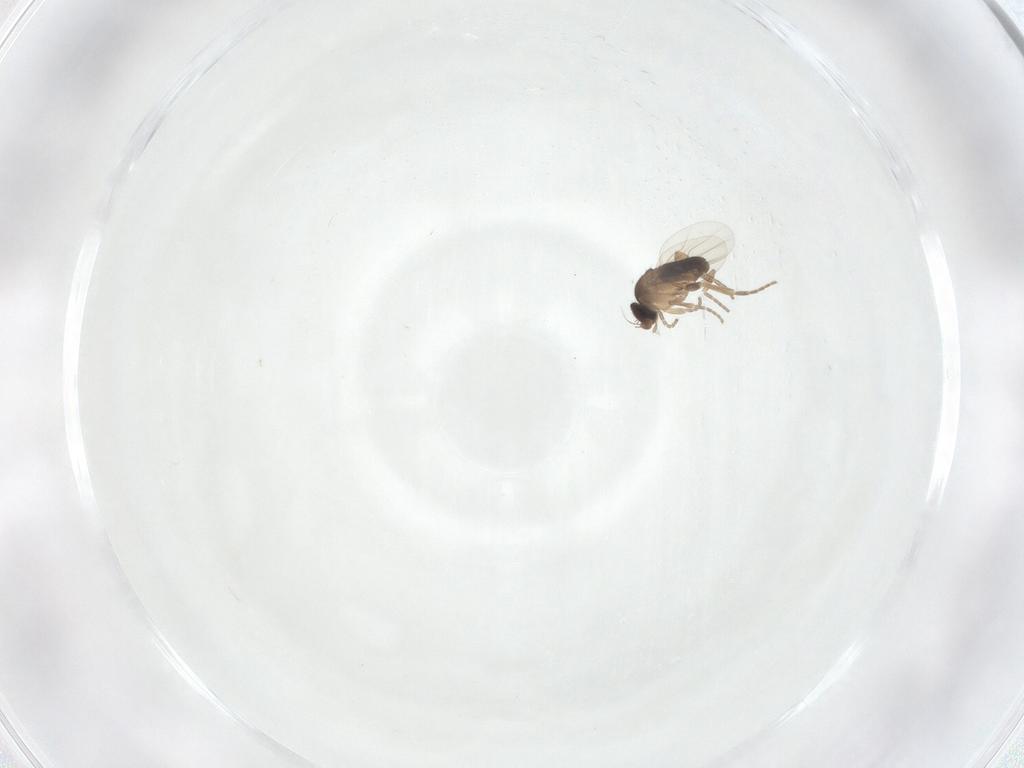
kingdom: Animalia
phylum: Arthropoda
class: Insecta
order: Diptera
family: Phoridae
